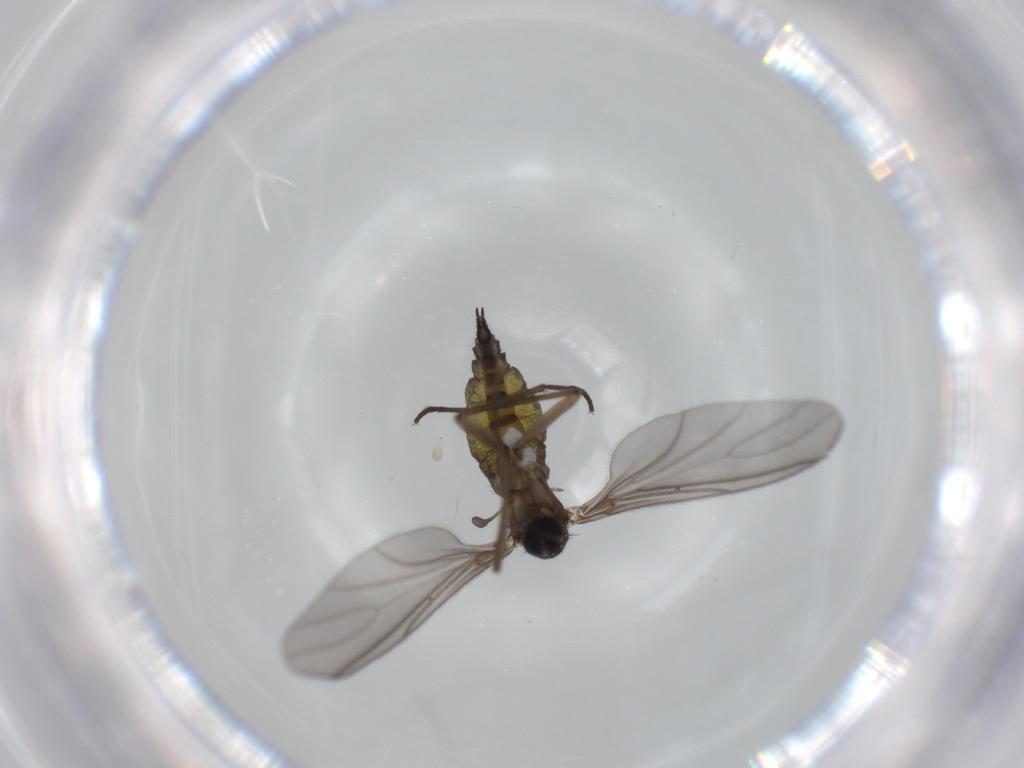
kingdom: Animalia
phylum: Arthropoda
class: Insecta
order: Diptera
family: Sciaridae
